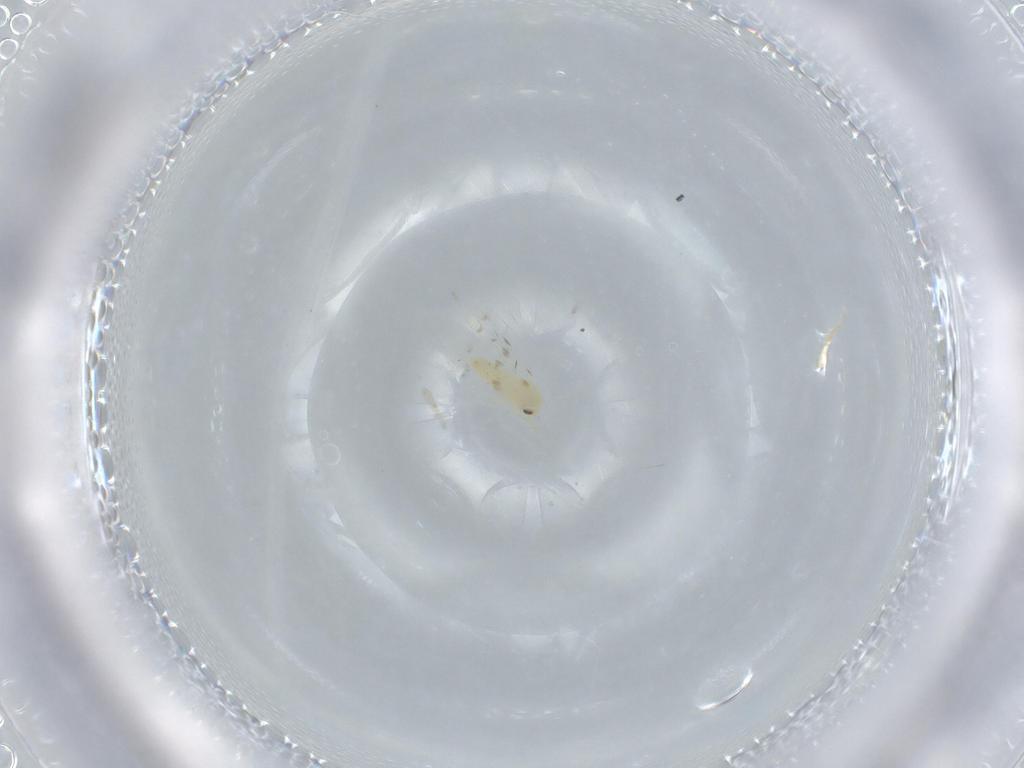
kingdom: Animalia
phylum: Arthropoda
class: Insecta
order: Hemiptera
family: Aleyrodidae
